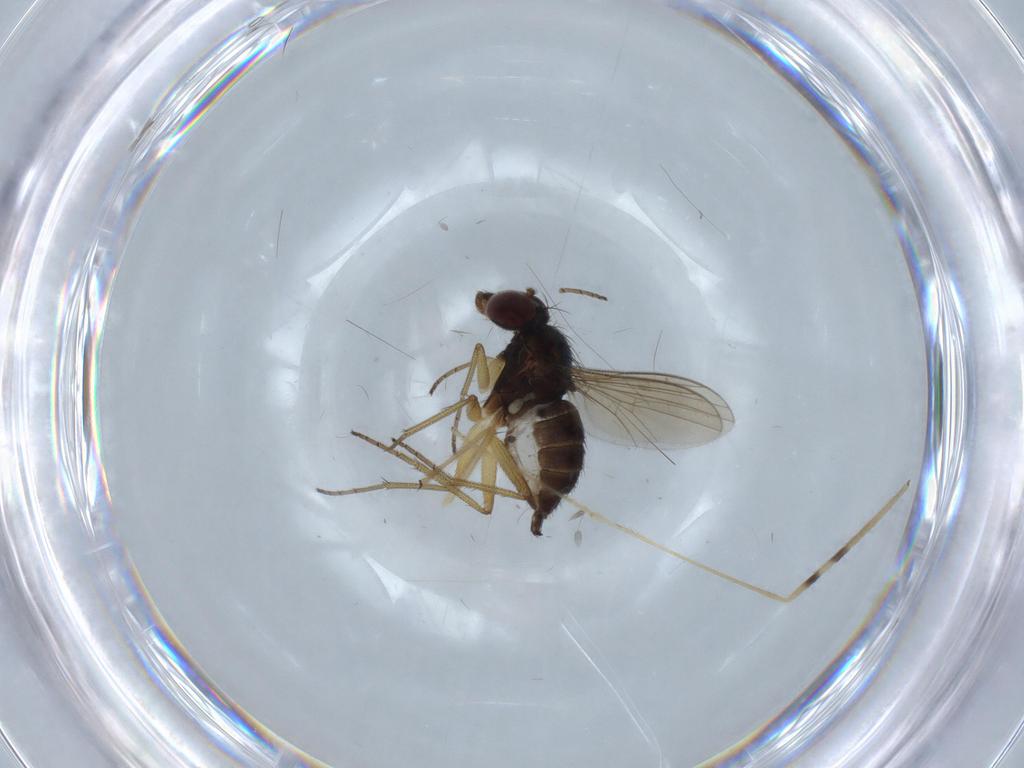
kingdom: Animalia
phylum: Arthropoda
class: Insecta
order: Diptera
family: Dolichopodidae
